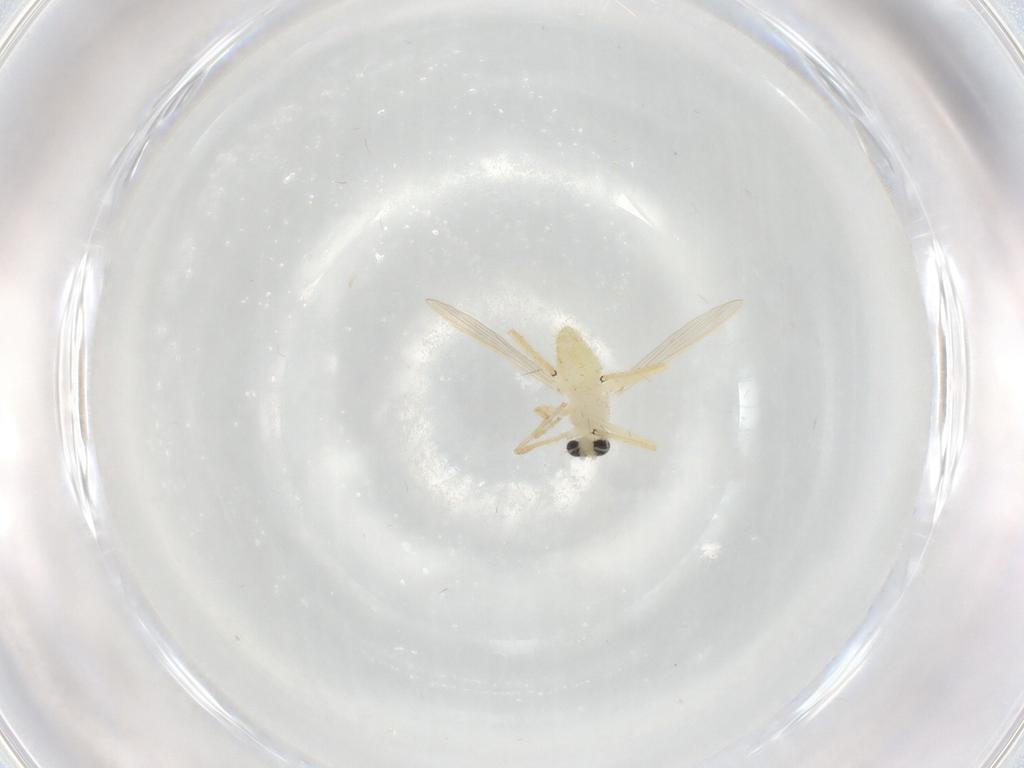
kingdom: Animalia
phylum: Arthropoda
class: Insecta
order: Diptera
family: Chironomidae
